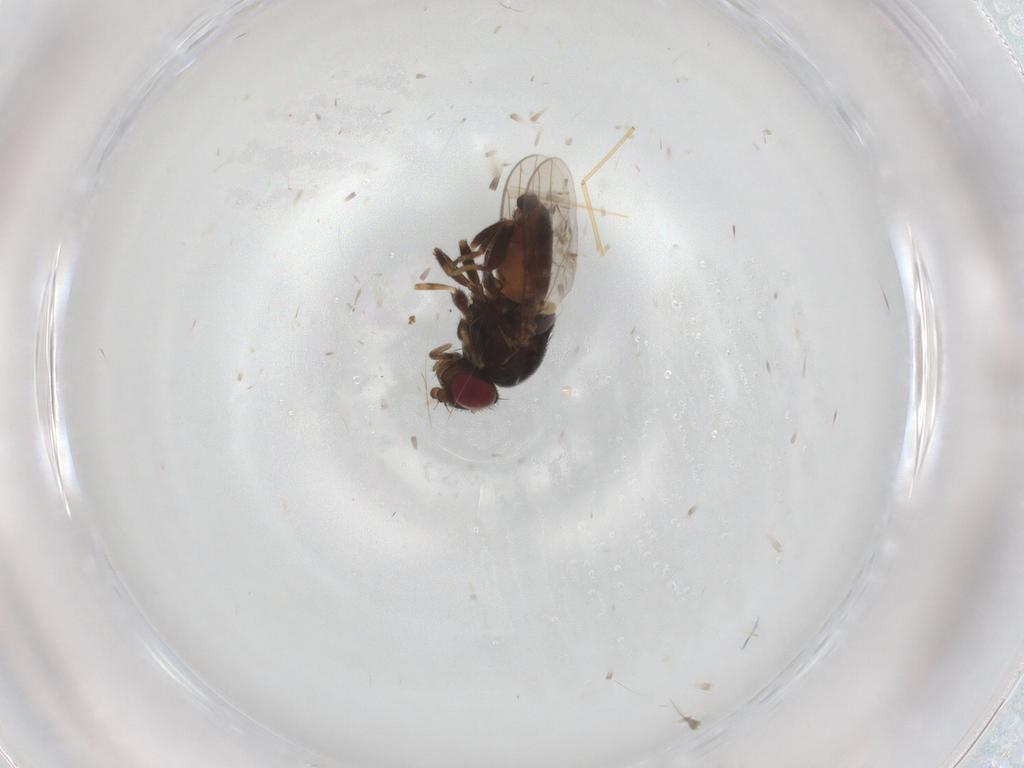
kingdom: Animalia
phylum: Arthropoda
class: Insecta
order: Diptera
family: Chloropidae
